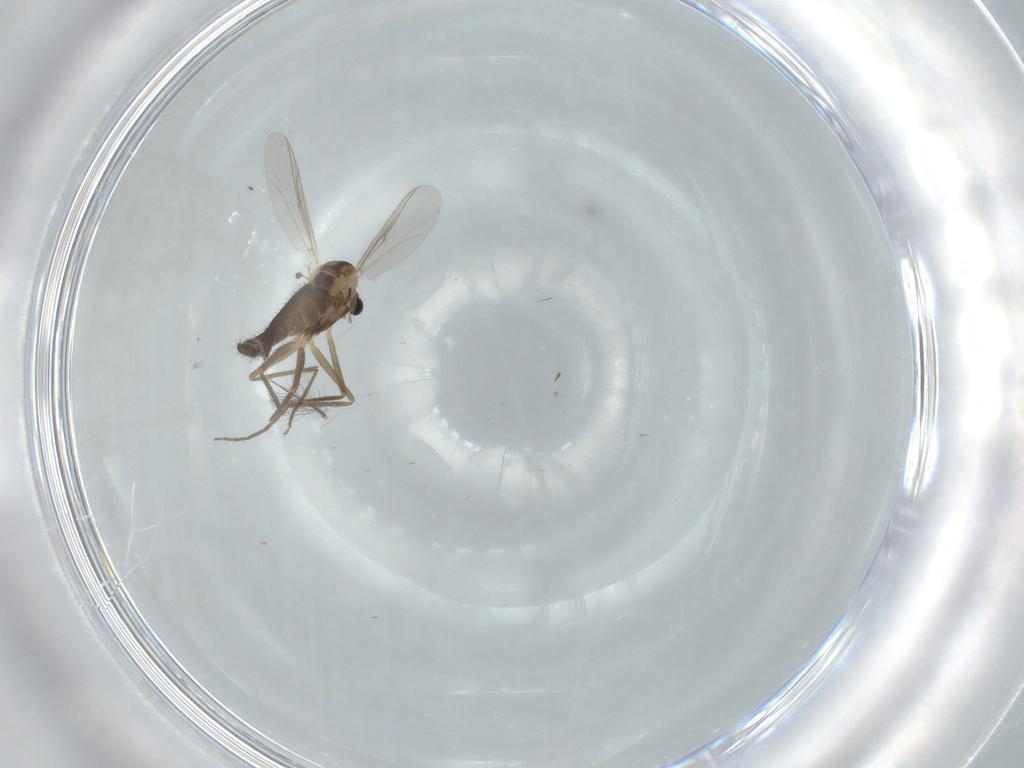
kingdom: Animalia
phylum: Arthropoda
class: Insecta
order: Diptera
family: Chironomidae
